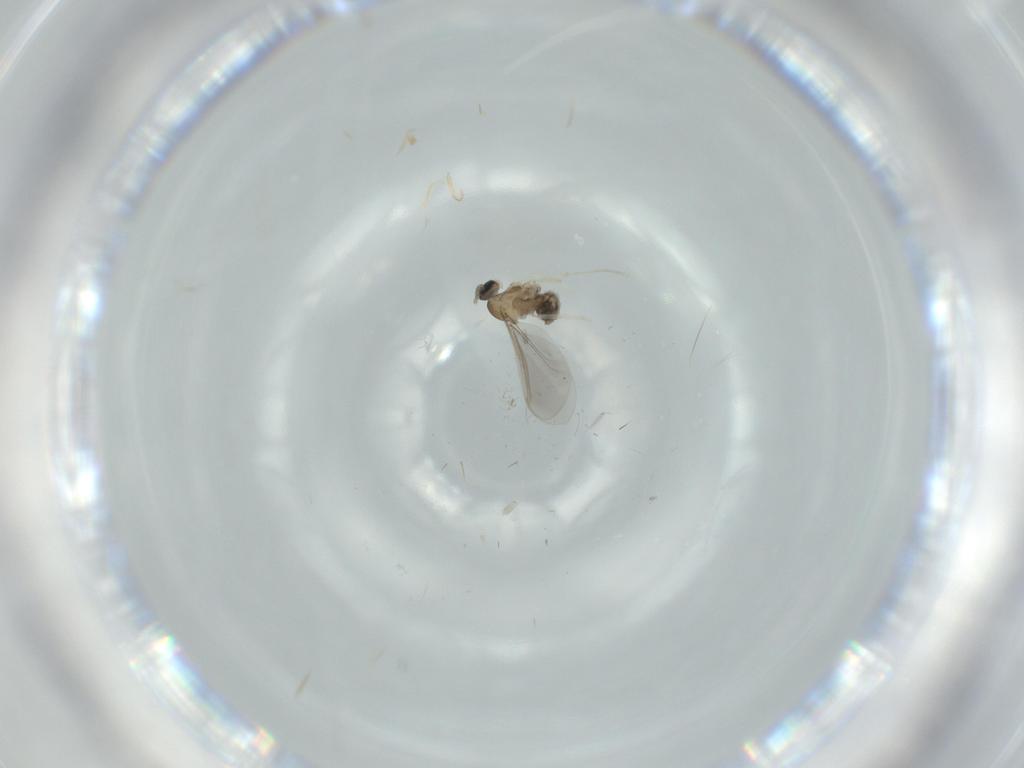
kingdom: Animalia
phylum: Arthropoda
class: Insecta
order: Diptera
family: Cecidomyiidae
